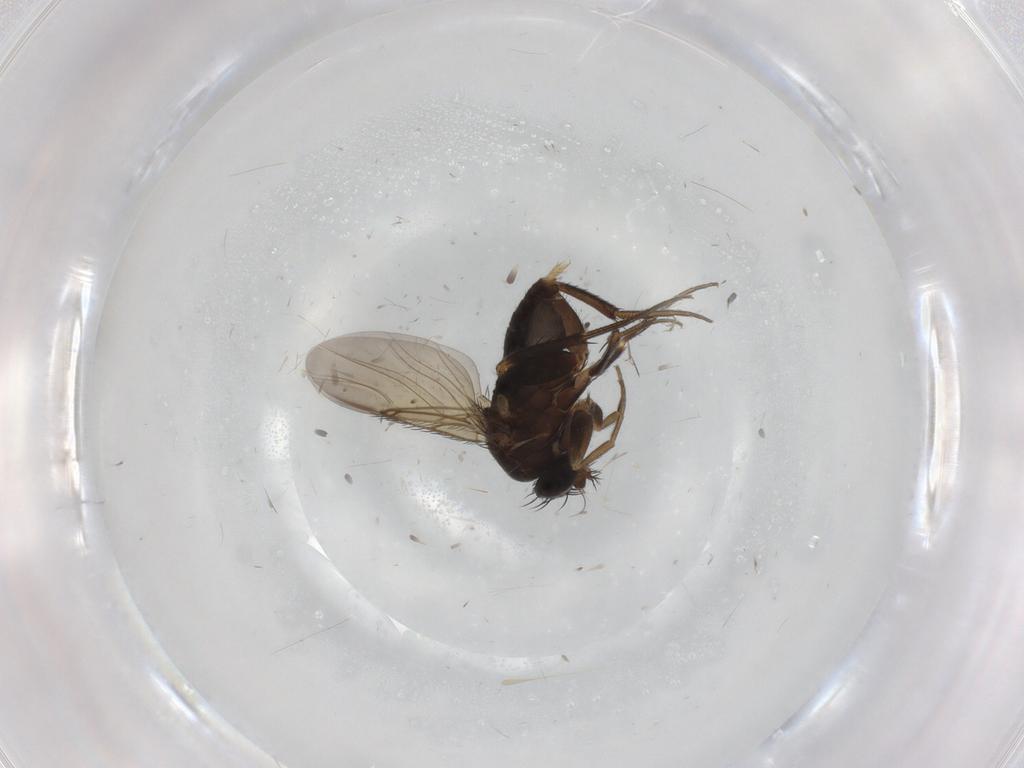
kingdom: Animalia
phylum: Arthropoda
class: Insecta
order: Diptera
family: Phoridae
